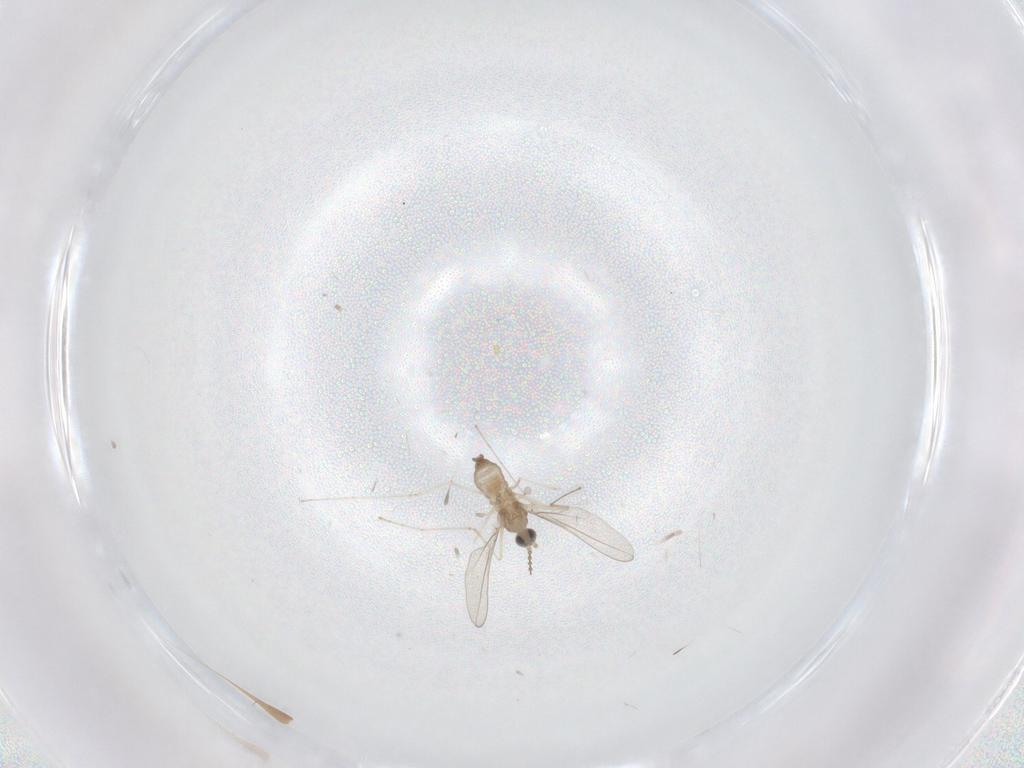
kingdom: Animalia
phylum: Arthropoda
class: Insecta
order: Diptera
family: Cecidomyiidae
